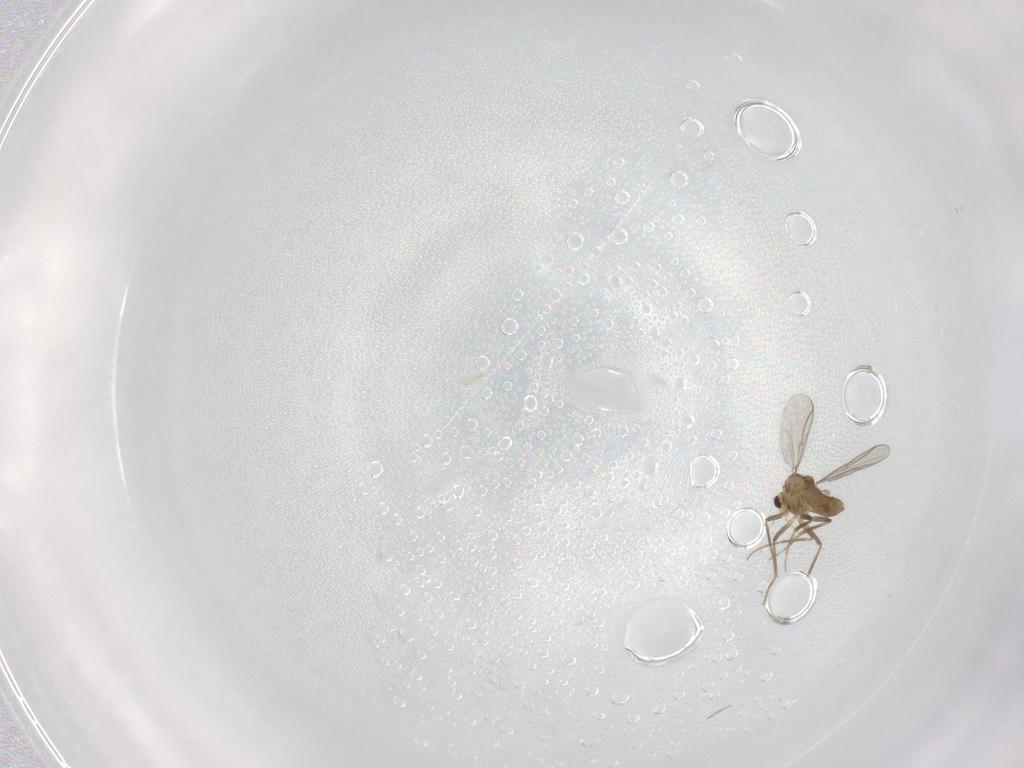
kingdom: Animalia
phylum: Arthropoda
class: Insecta
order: Diptera
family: Chironomidae
